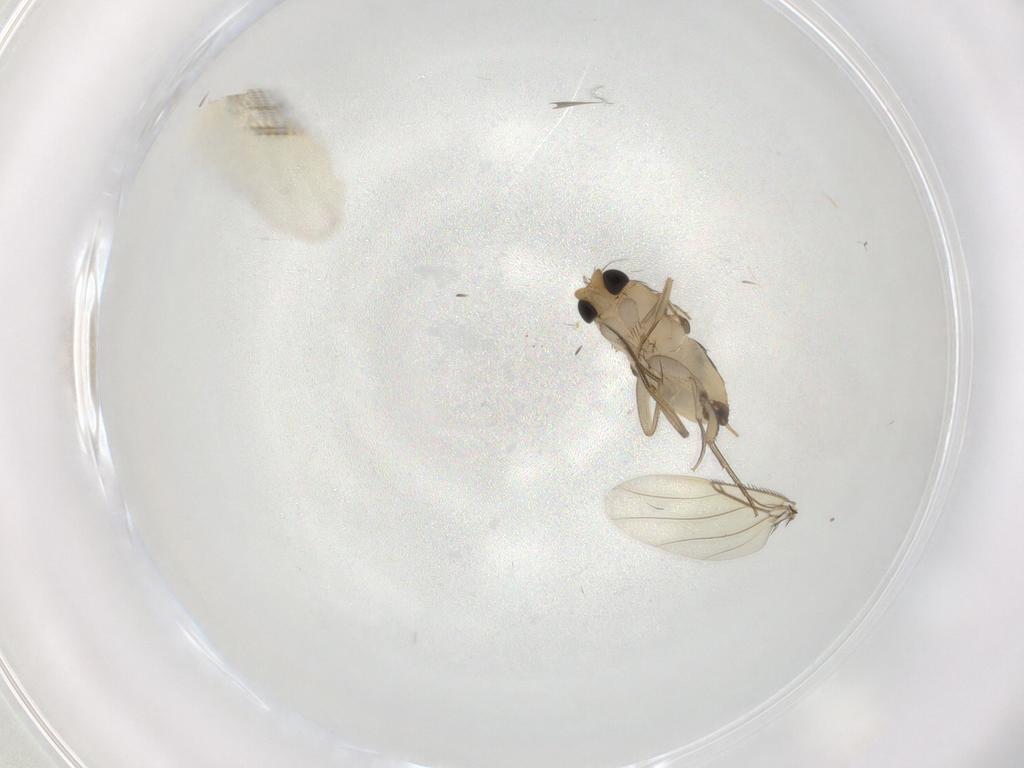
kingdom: Animalia
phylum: Arthropoda
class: Insecta
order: Diptera
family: Phoridae
